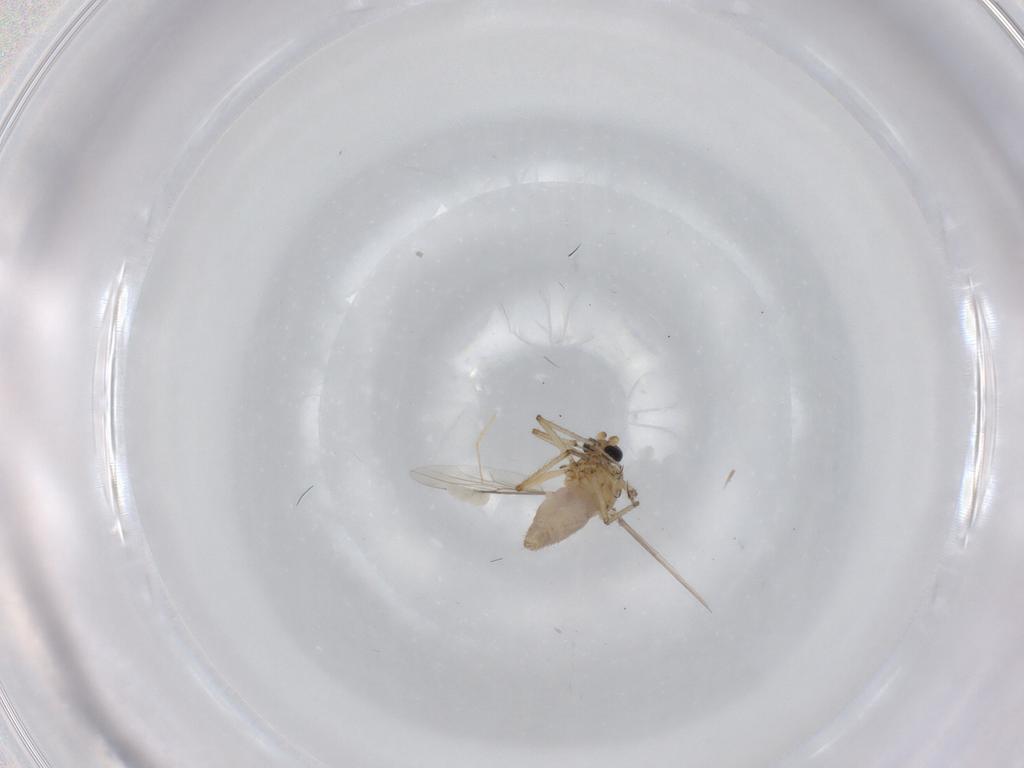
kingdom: Animalia
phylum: Arthropoda
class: Insecta
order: Diptera
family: Ceratopogonidae
